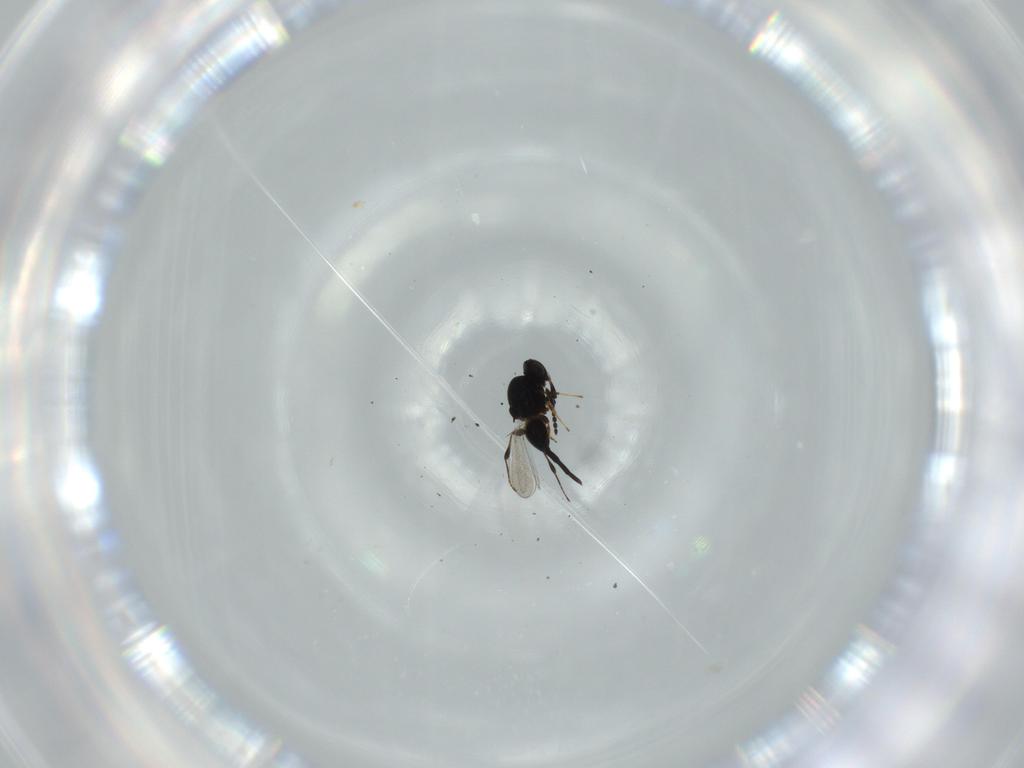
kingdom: Animalia
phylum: Arthropoda
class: Insecta
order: Hymenoptera
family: Platygastridae
